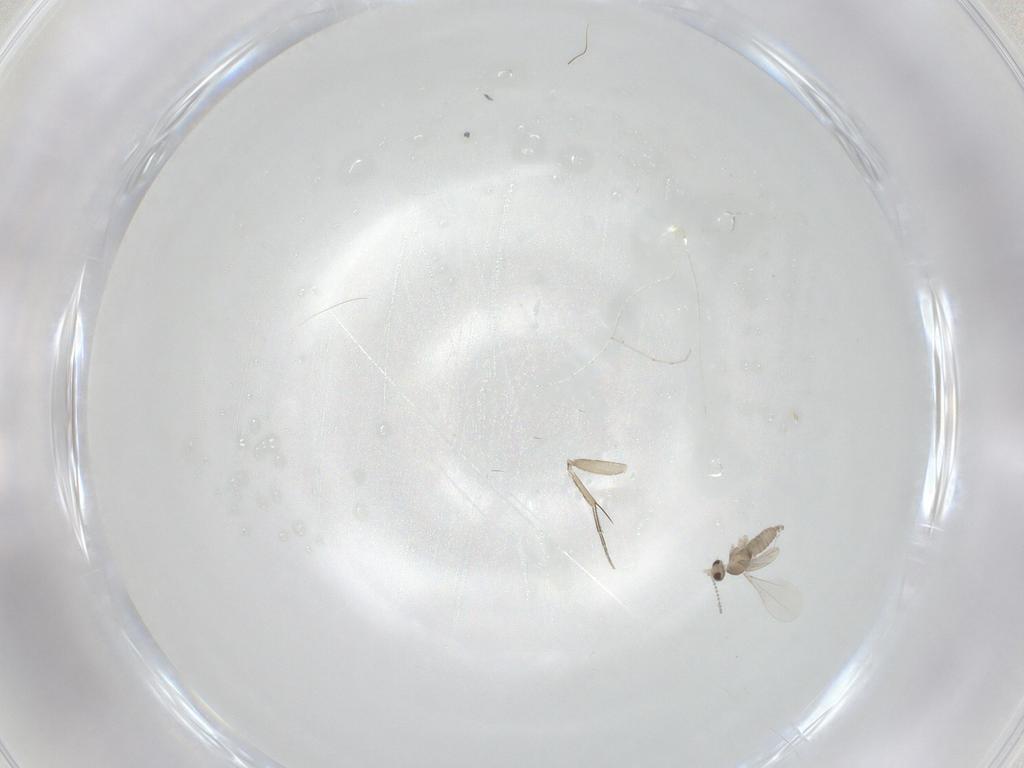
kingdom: Animalia
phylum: Arthropoda
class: Insecta
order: Diptera
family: Cecidomyiidae
